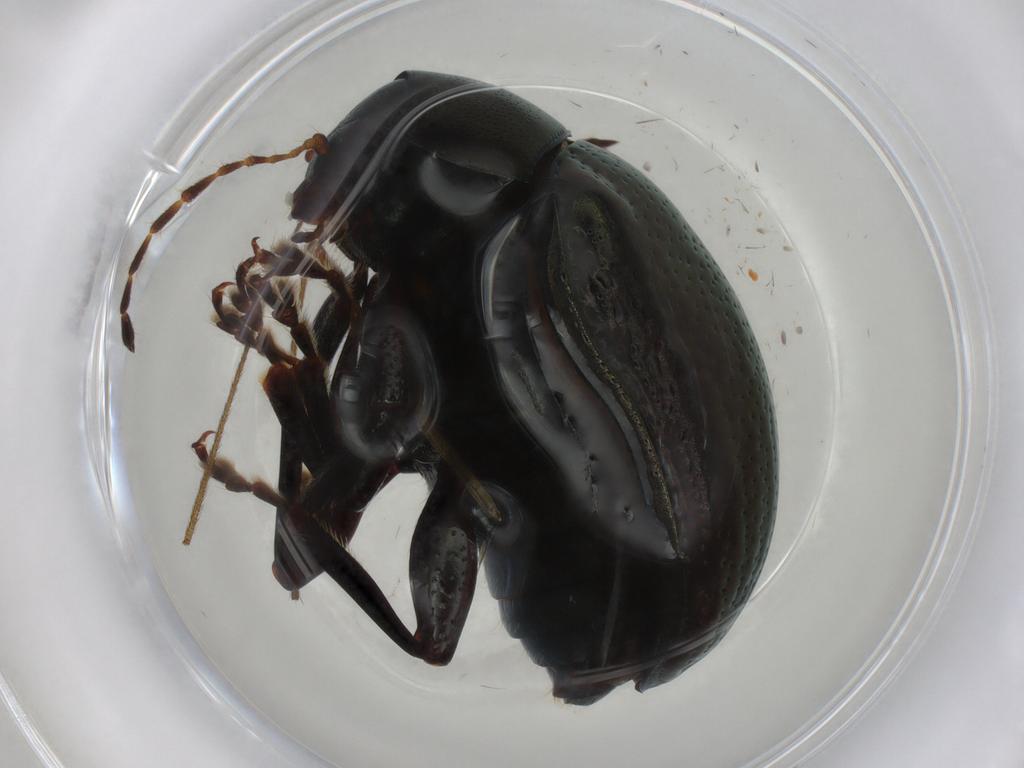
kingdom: Animalia
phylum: Arthropoda
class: Insecta
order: Coleoptera
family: Chrysomelidae
